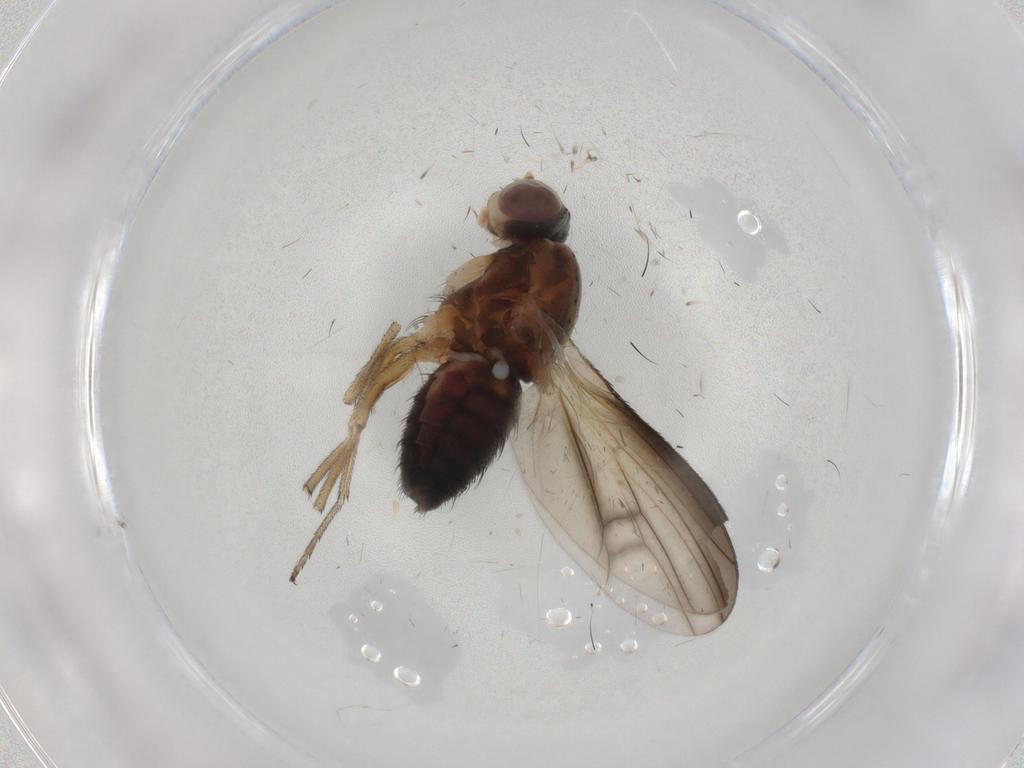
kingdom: Animalia
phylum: Arthropoda
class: Insecta
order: Diptera
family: Heleomyzidae
